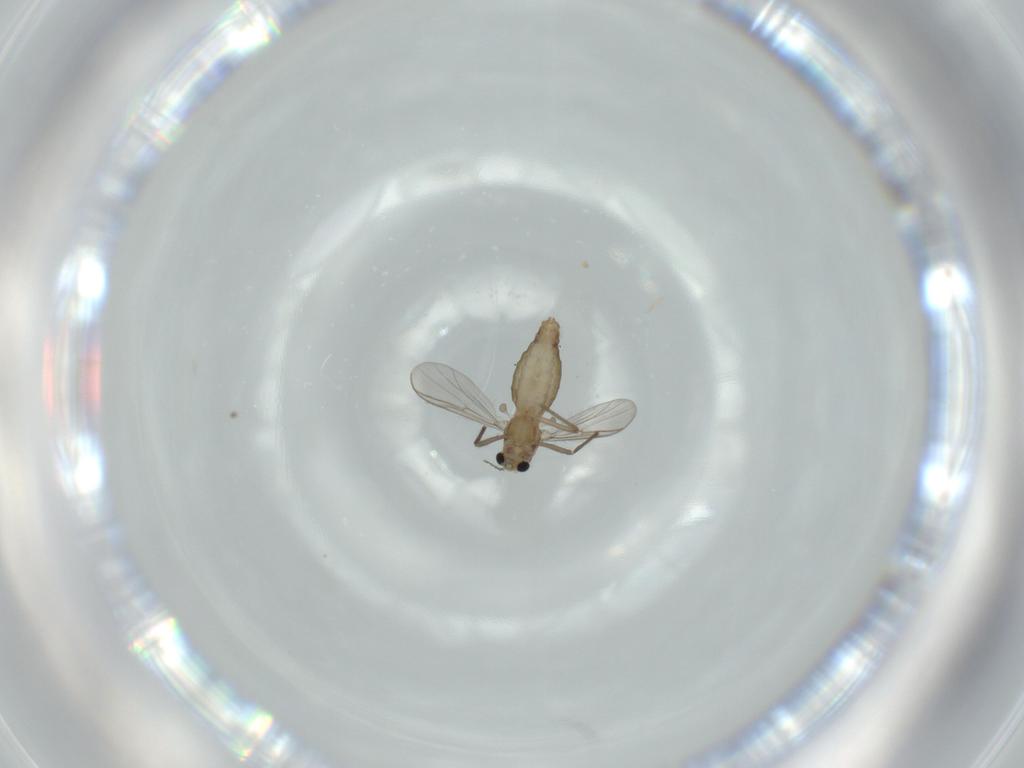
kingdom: Animalia
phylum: Arthropoda
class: Insecta
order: Diptera
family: Chironomidae
